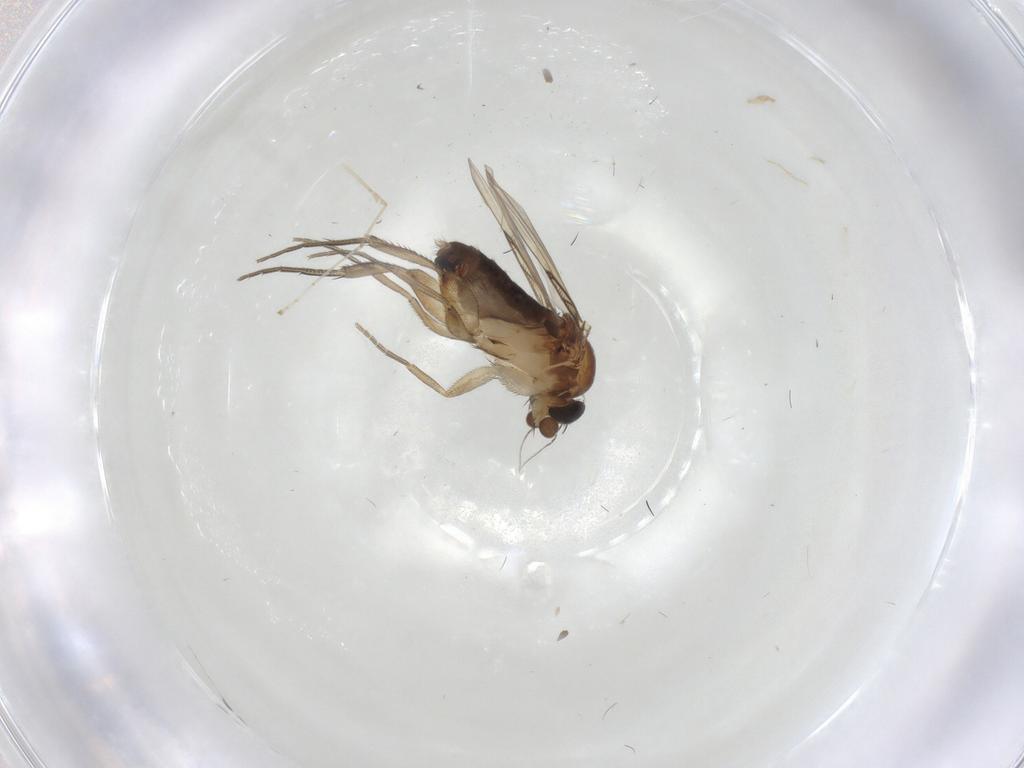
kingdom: Animalia
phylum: Arthropoda
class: Insecta
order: Diptera
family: Phoridae
